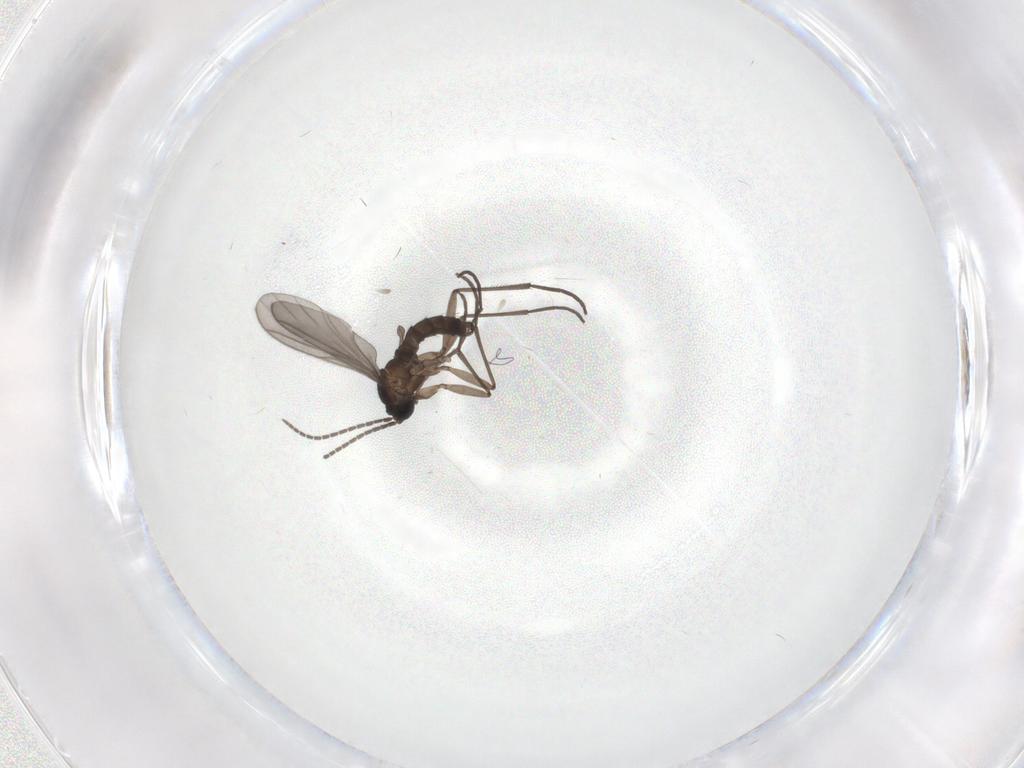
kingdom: Animalia
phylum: Arthropoda
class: Insecta
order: Diptera
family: Sciaridae
